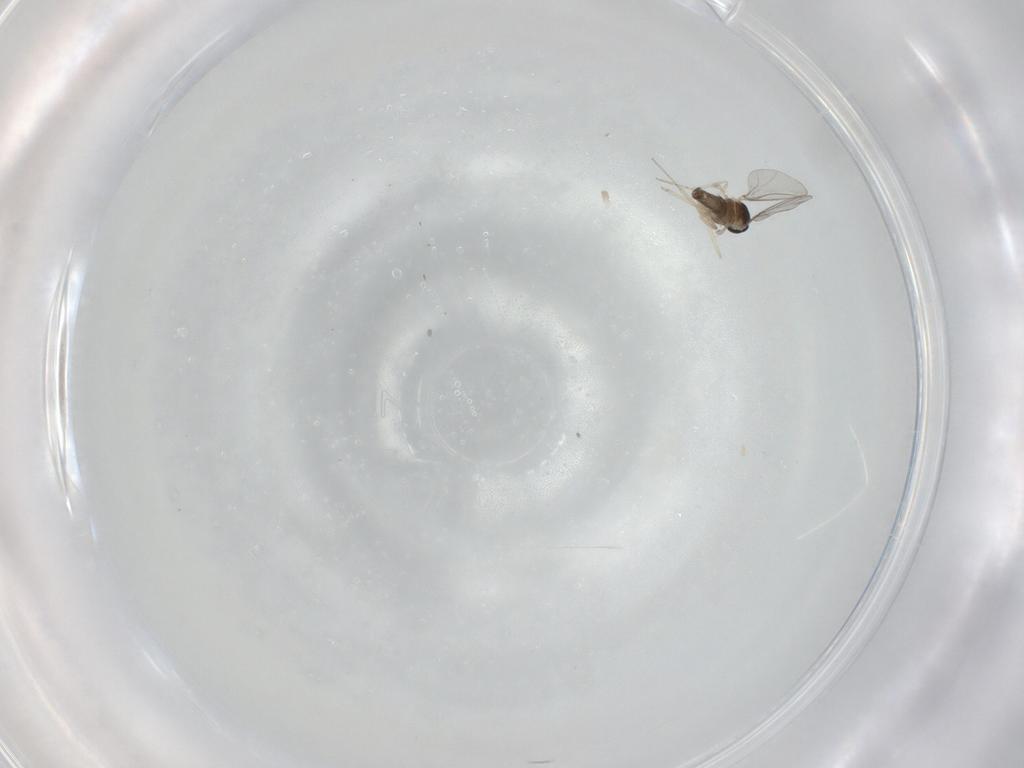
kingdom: Animalia
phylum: Arthropoda
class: Insecta
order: Diptera
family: Cecidomyiidae
